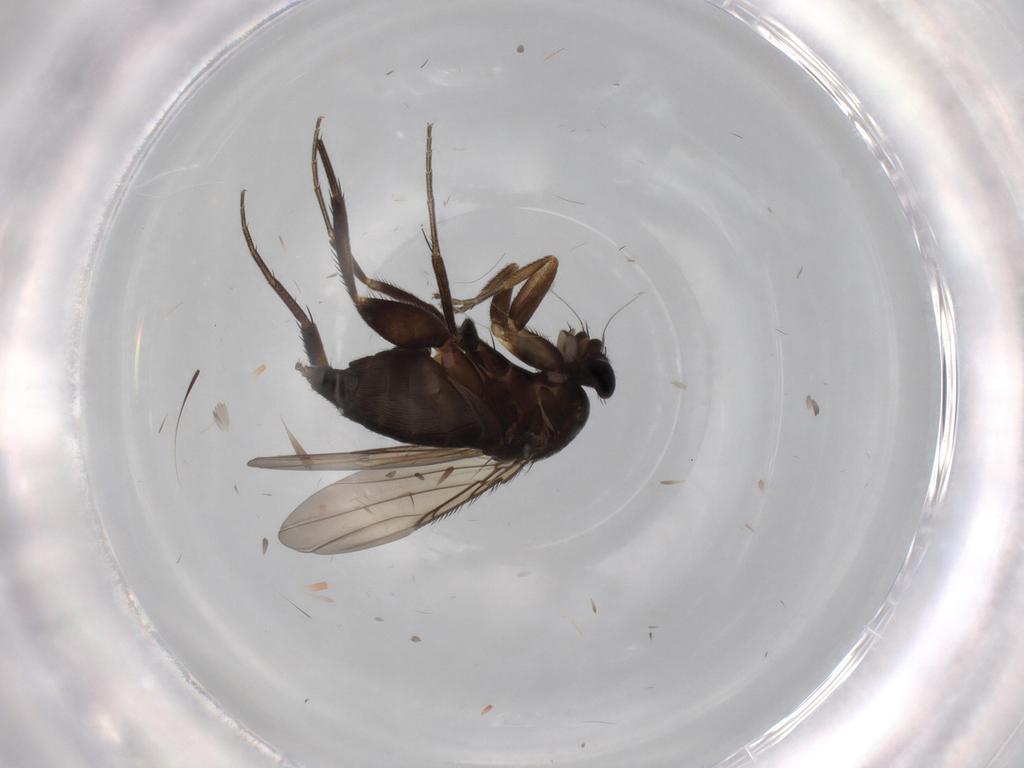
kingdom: Animalia
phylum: Arthropoda
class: Insecta
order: Diptera
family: Phoridae
